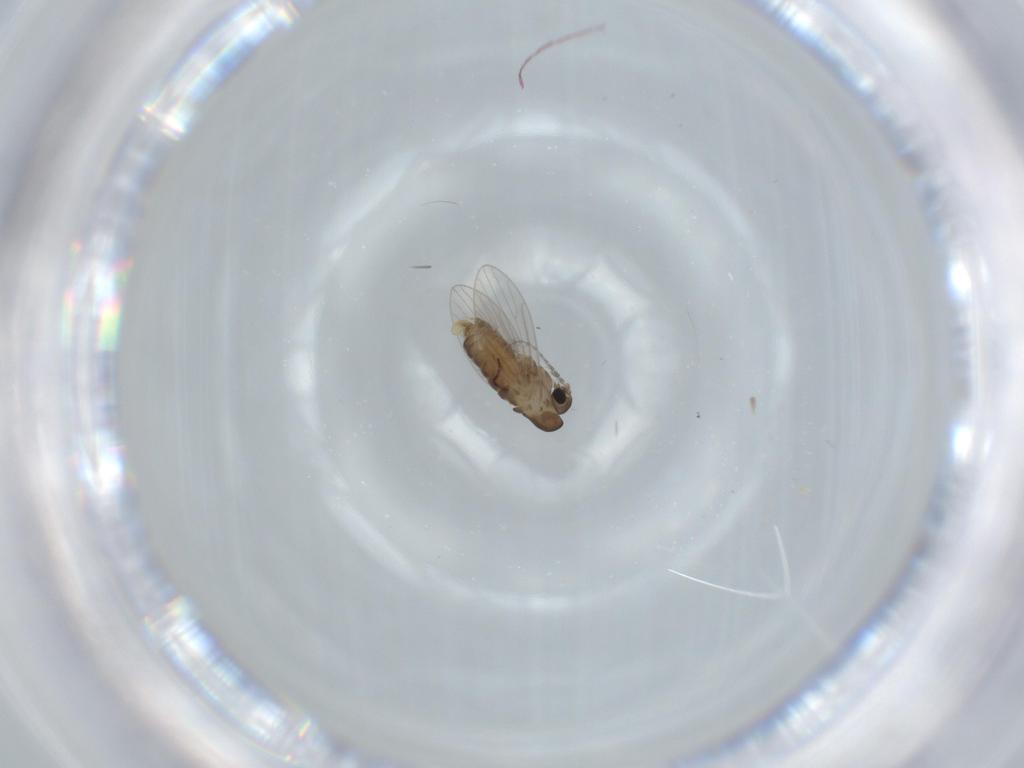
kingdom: Animalia
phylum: Arthropoda
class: Insecta
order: Diptera
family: Psychodidae
